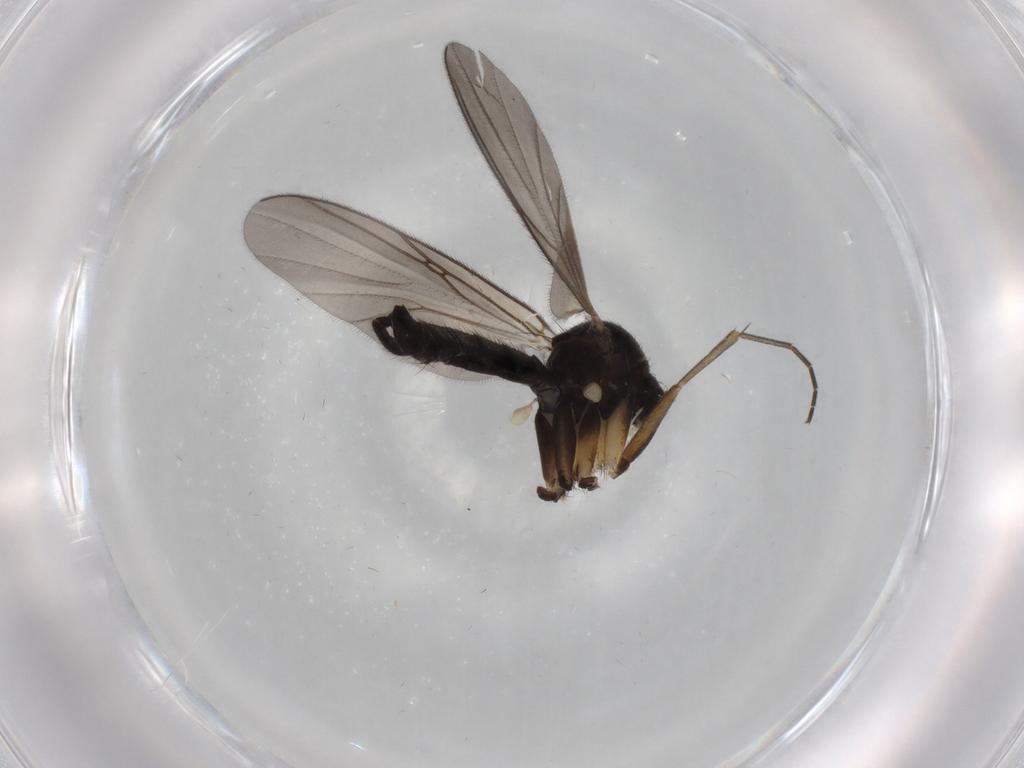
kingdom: Animalia
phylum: Arthropoda
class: Insecta
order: Diptera
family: Mycetophilidae
